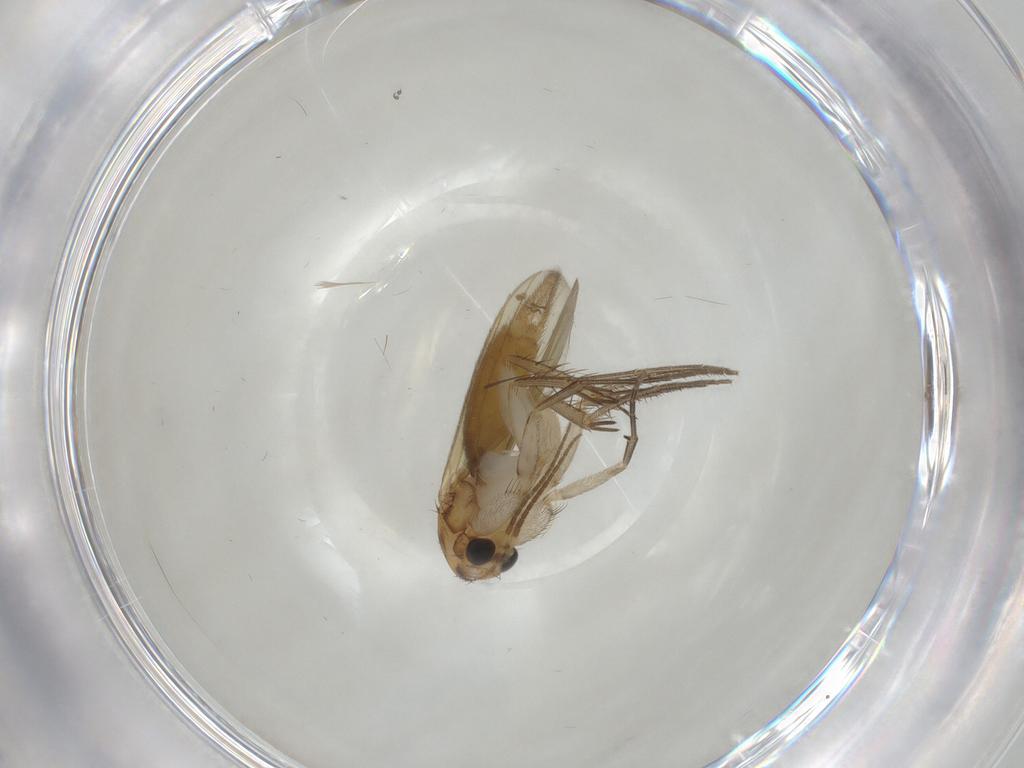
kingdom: Animalia
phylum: Arthropoda
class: Insecta
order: Diptera
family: Mycetophilidae
